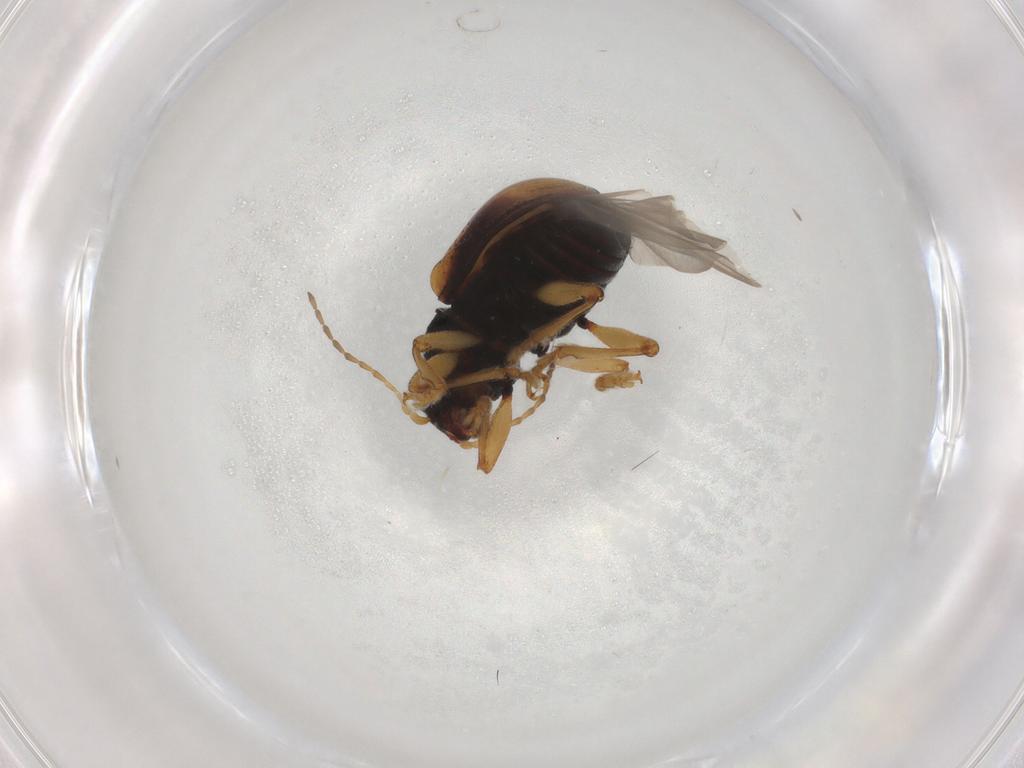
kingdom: Animalia
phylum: Arthropoda
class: Insecta
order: Coleoptera
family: Chrysomelidae
